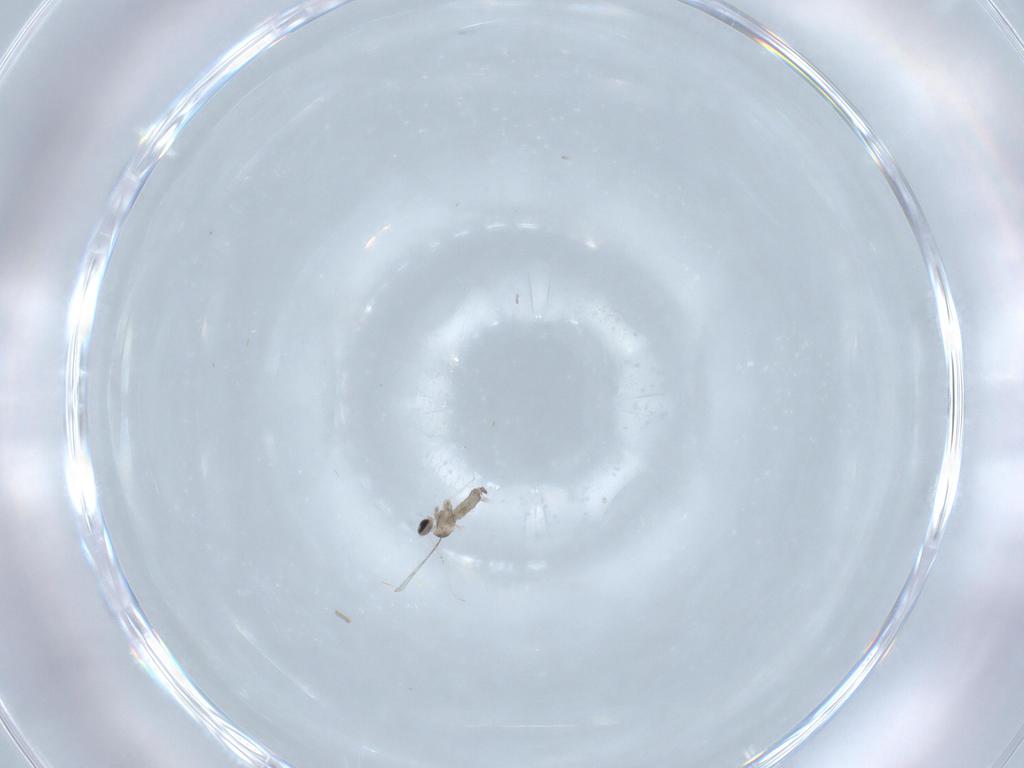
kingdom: Animalia
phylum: Arthropoda
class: Insecta
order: Diptera
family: Cecidomyiidae
